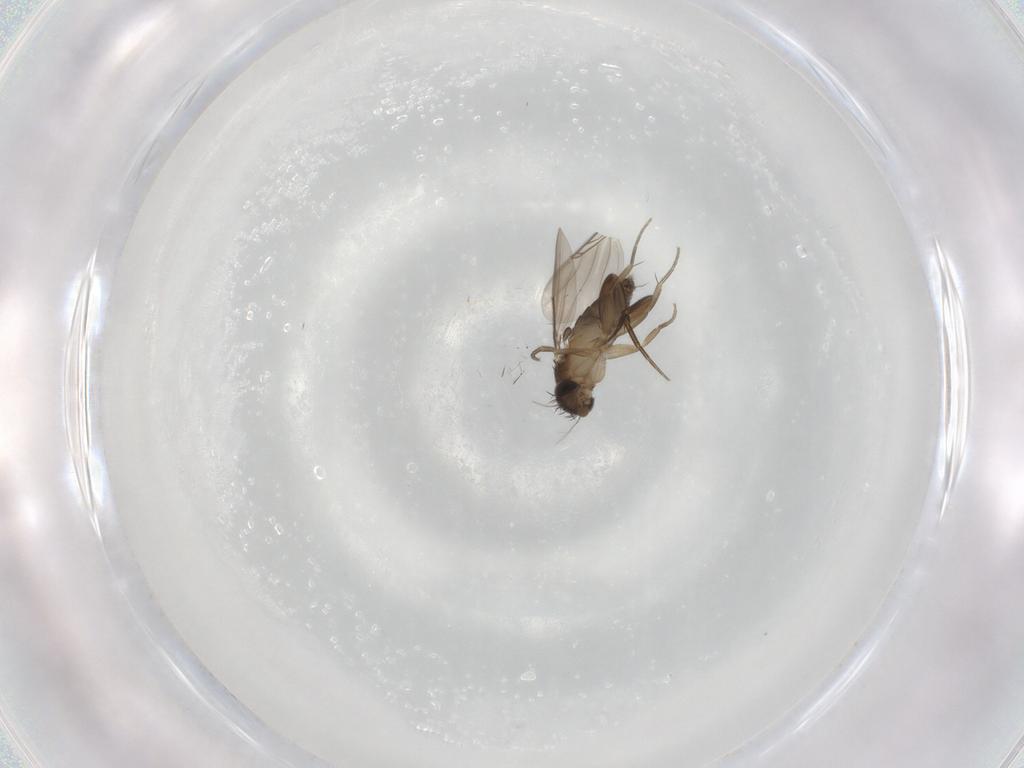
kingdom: Animalia
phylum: Arthropoda
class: Insecta
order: Diptera
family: Phoridae
